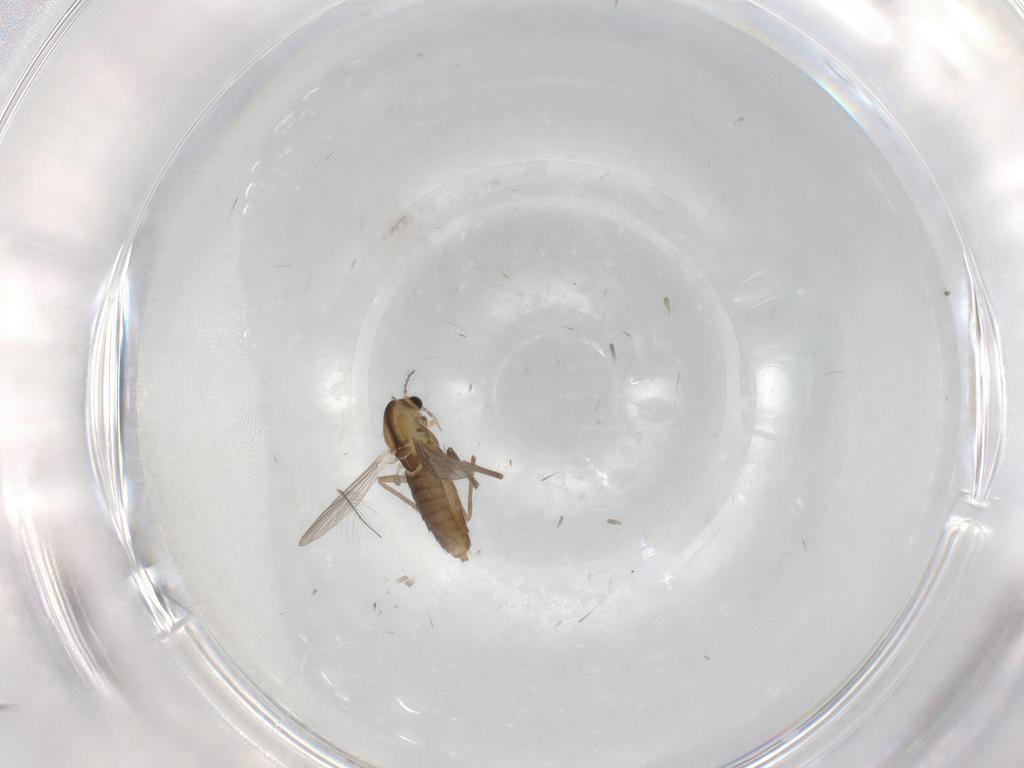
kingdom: Animalia
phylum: Arthropoda
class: Insecta
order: Diptera
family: Chironomidae
